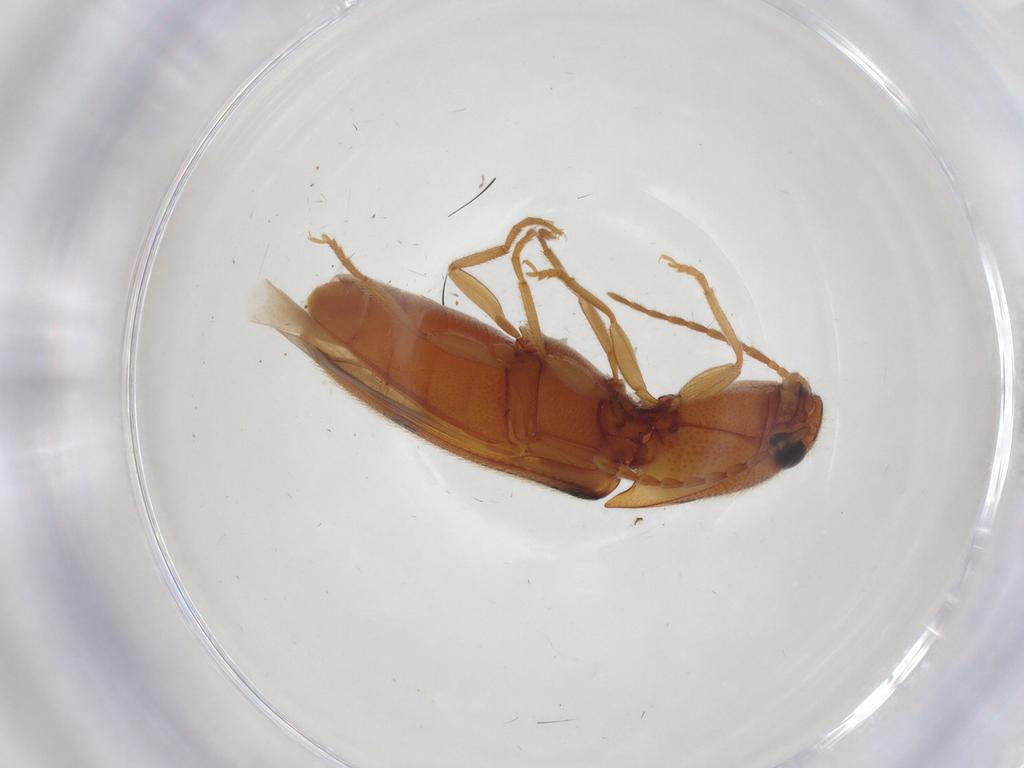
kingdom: Animalia
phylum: Arthropoda
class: Insecta
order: Coleoptera
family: Elateridae
